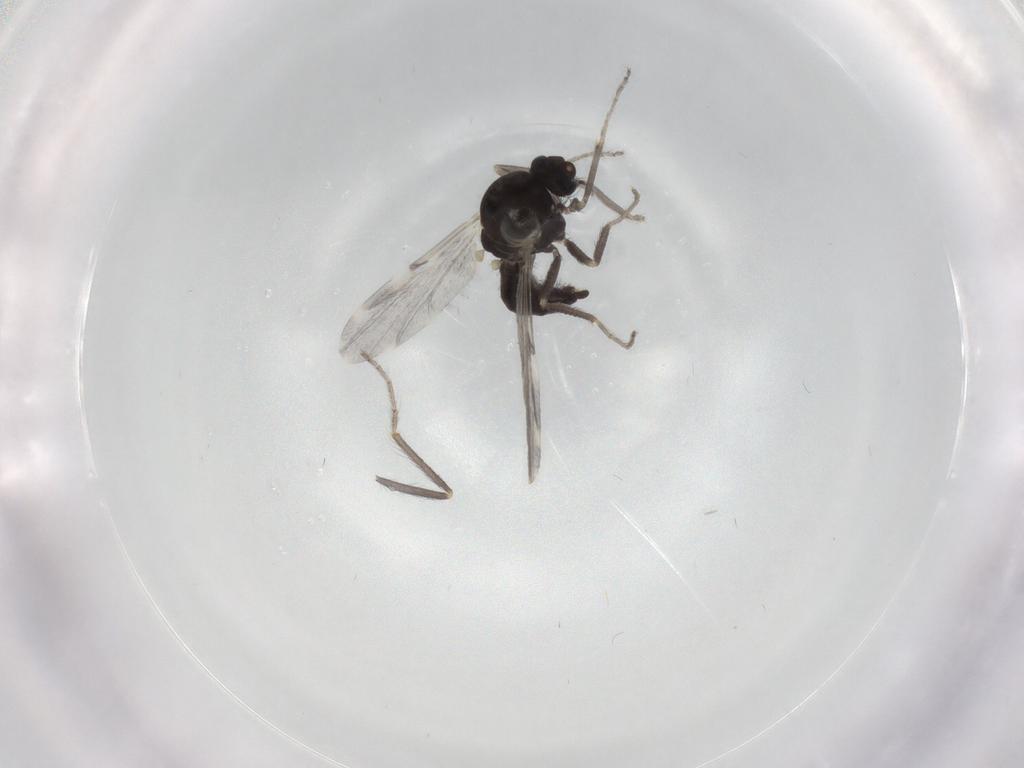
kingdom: Animalia
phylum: Arthropoda
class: Insecta
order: Diptera
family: Ceratopogonidae
